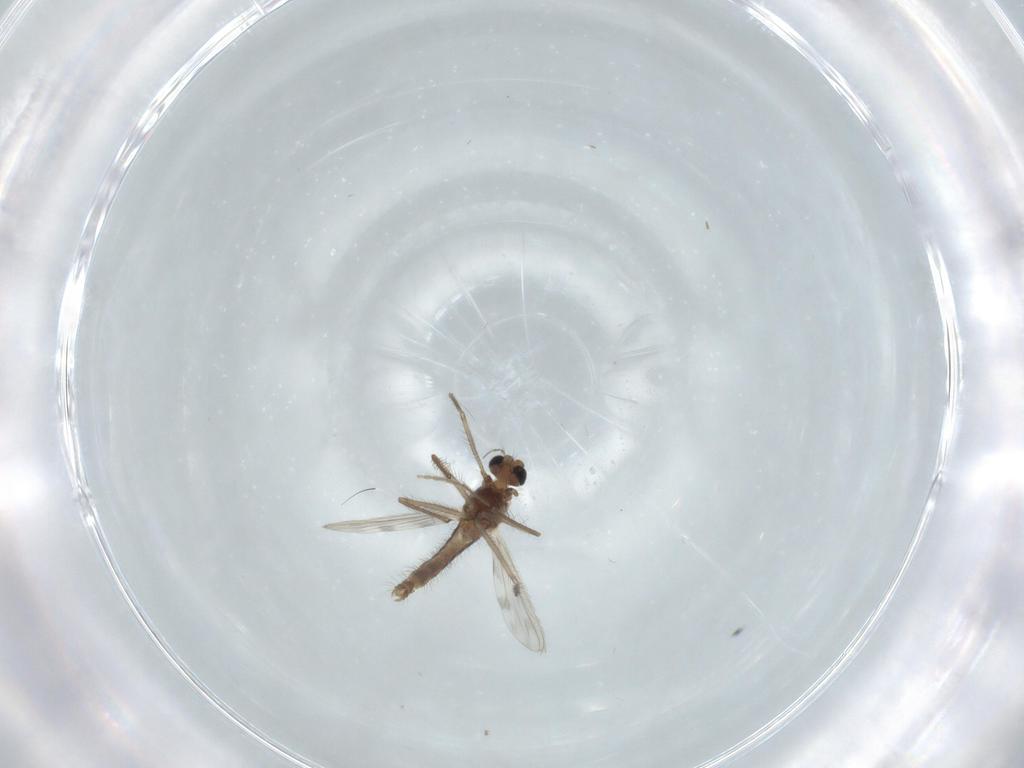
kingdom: Animalia
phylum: Arthropoda
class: Insecta
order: Diptera
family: Chironomidae
